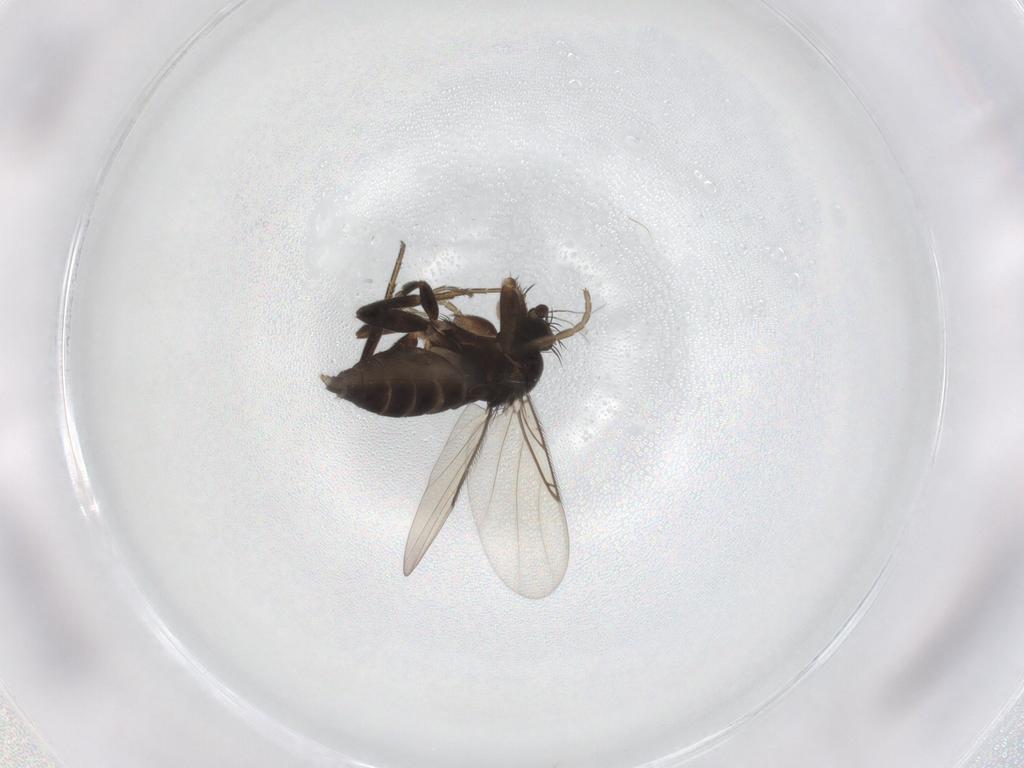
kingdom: Animalia
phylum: Arthropoda
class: Insecta
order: Diptera
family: Phoridae
